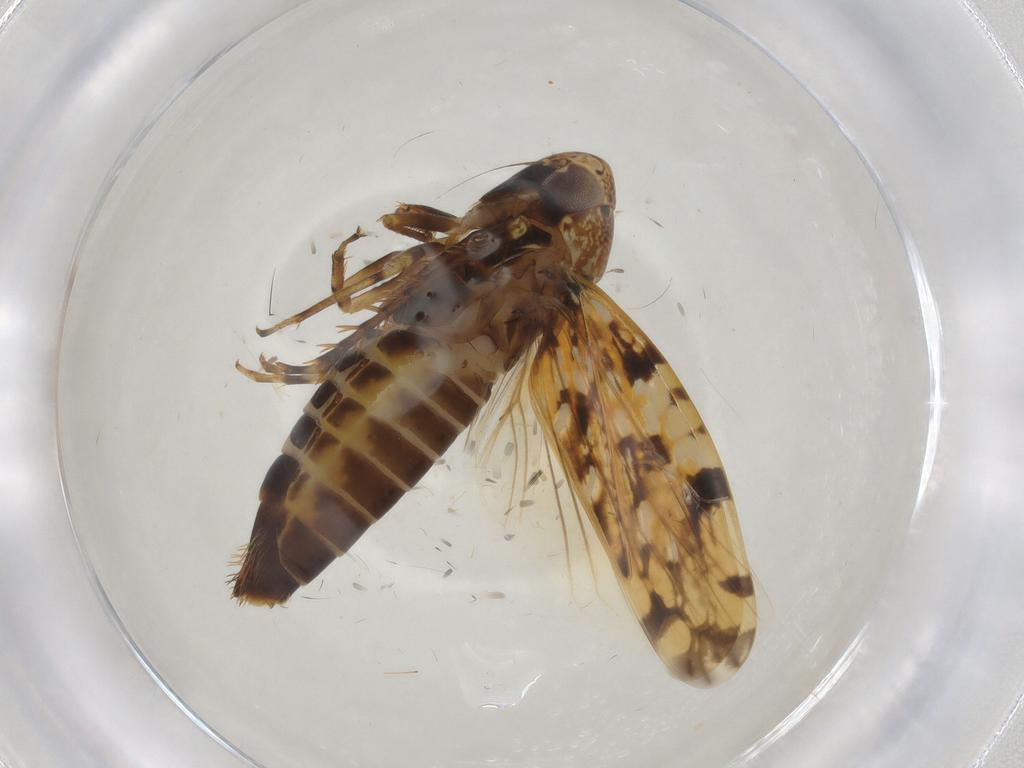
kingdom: Animalia
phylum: Arthropoda
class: Insecta
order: Hemiptera
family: Cicadellidae
